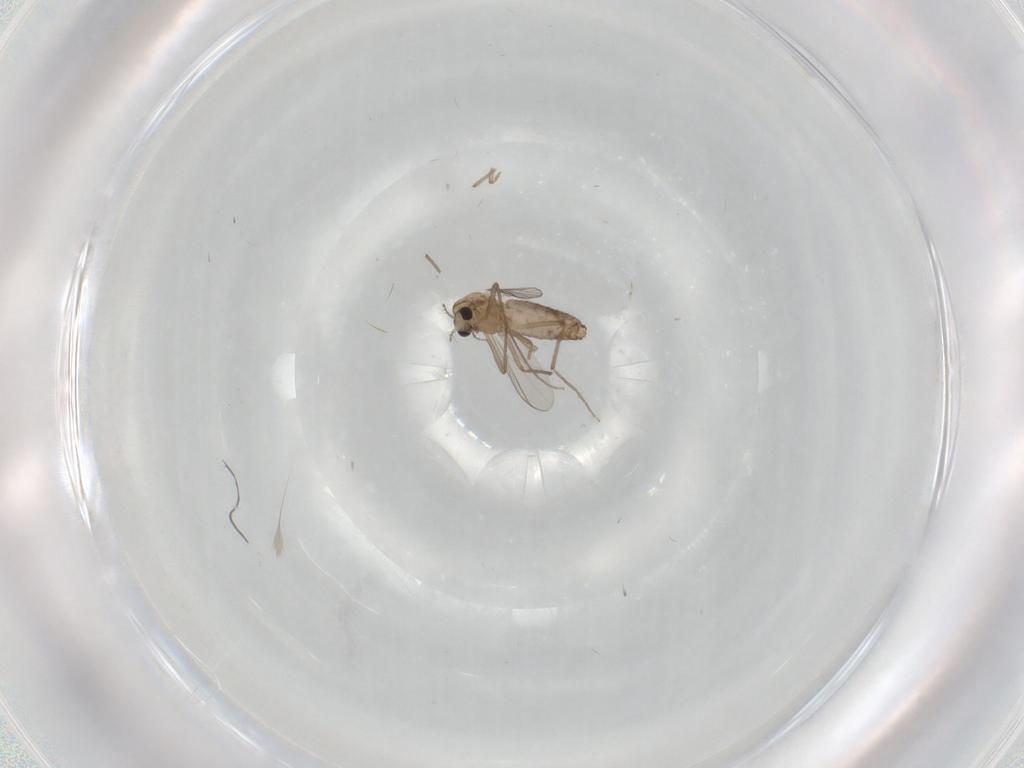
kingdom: Animalia
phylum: Arthropoda
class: Insecta
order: Diptera
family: Chironomidae
